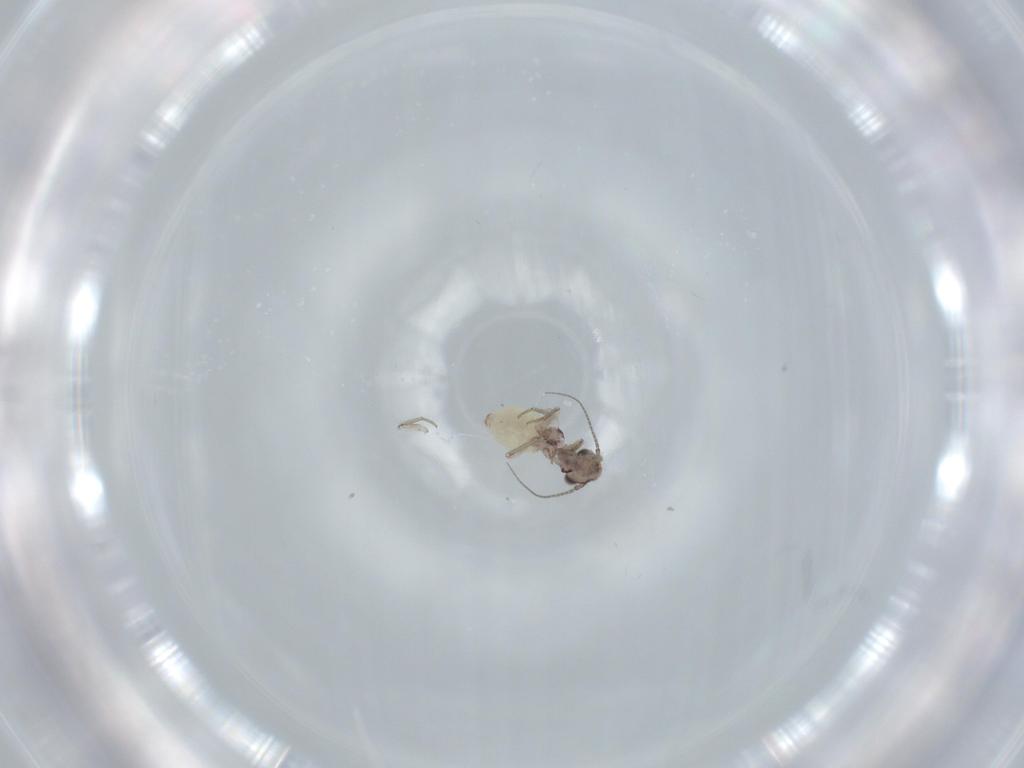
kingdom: Animalia
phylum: Arthropoda
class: Insecta
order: Psocodea
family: Lepidopsocidae
